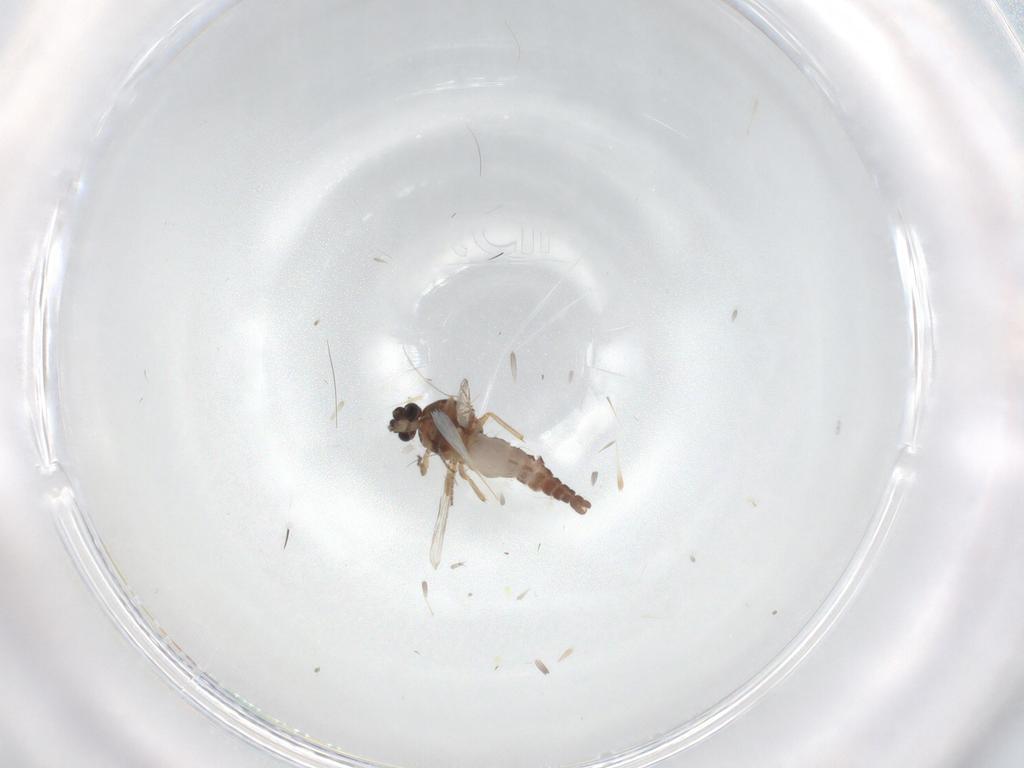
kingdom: Animalia
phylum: Arthropoda
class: Insecta
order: Diptera
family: Ceratopogonidae
